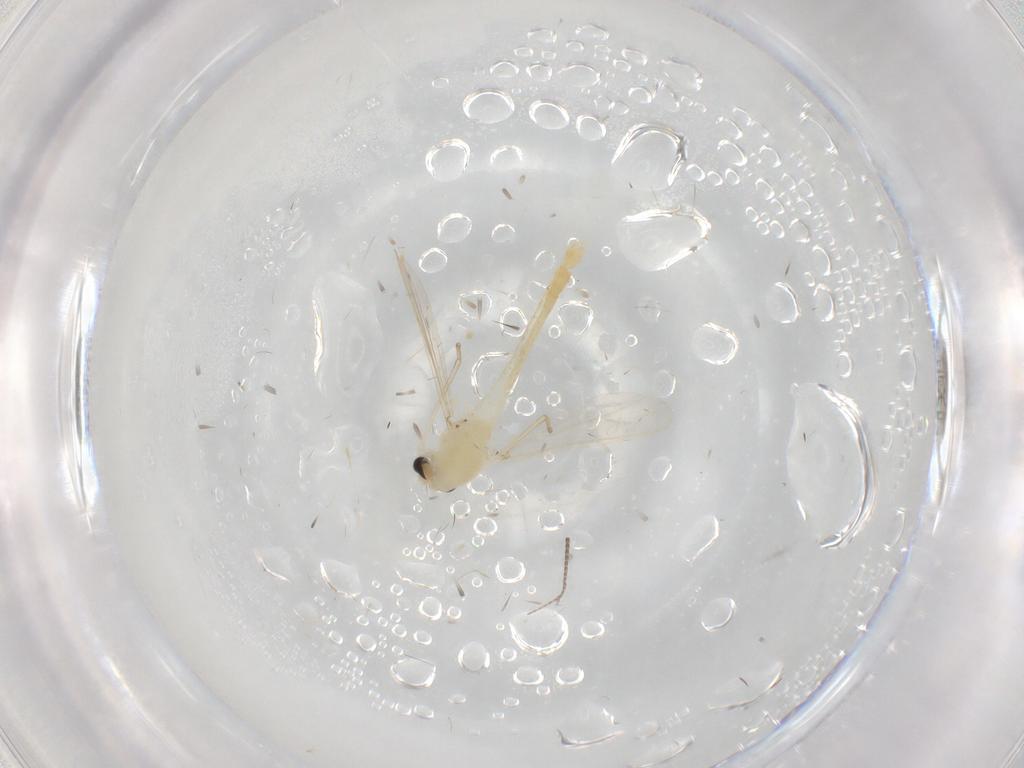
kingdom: Animalia
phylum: Arthropoda
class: Insecta
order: Diptera
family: Chironomidae
